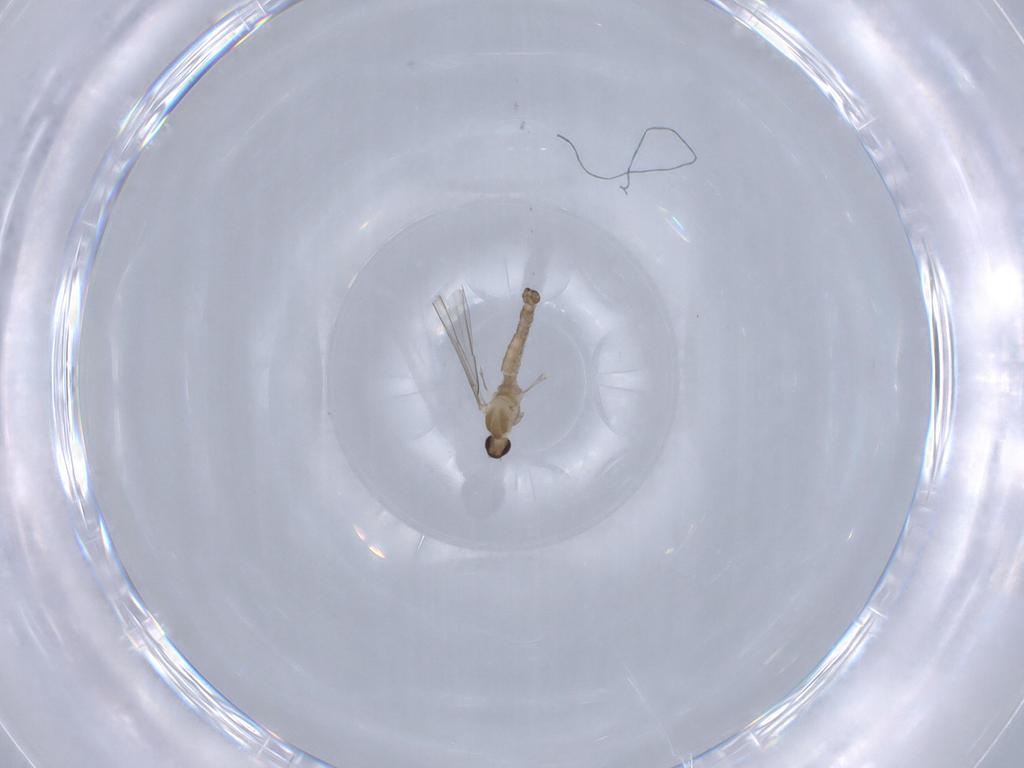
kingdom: Animalia
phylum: Arthropoda
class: Insecta
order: Diptera
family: Cecidomyiidae
